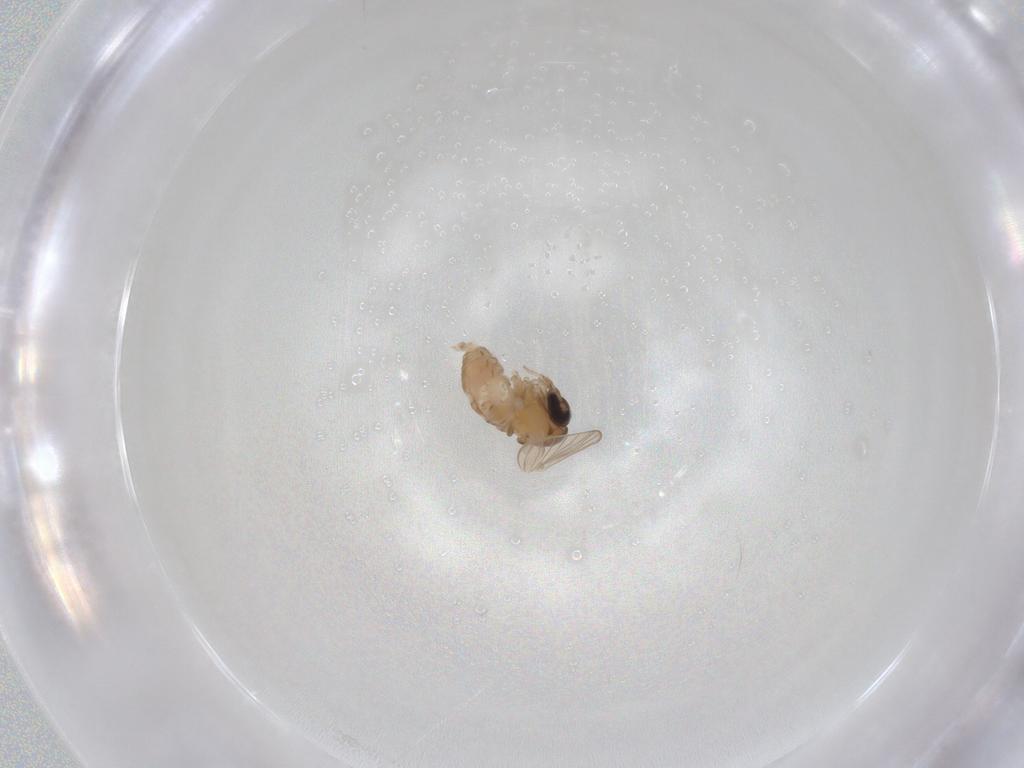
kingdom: Animalia
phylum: Arthropoda
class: Insecta
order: Diptera
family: Psychodidae
